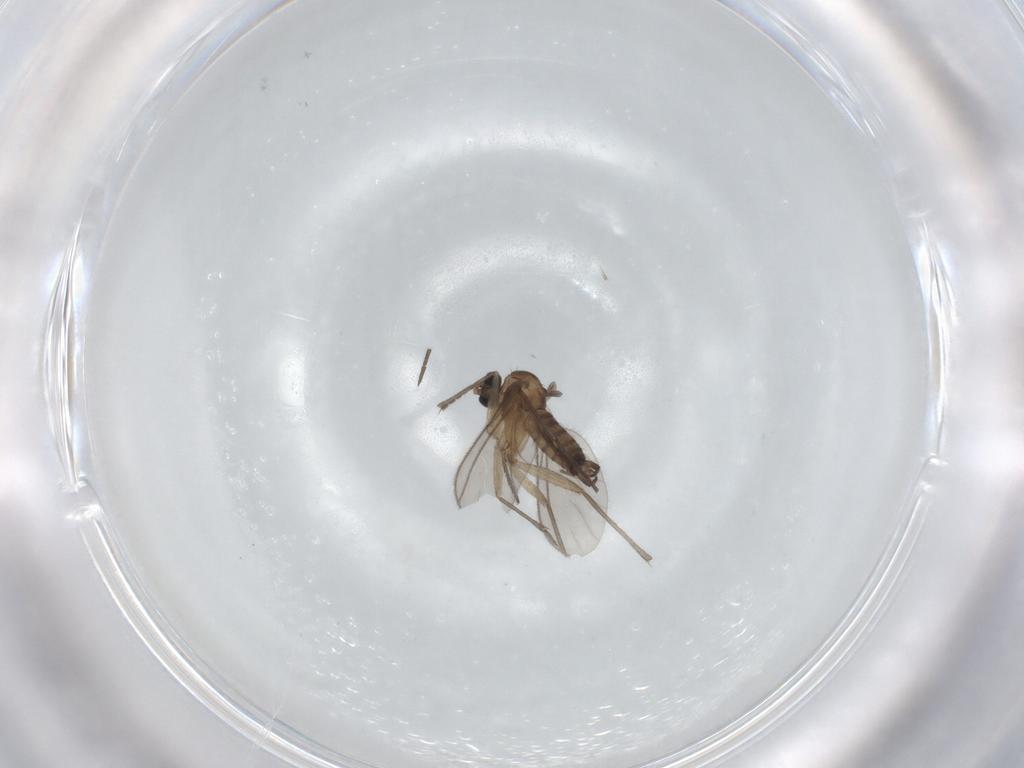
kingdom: Animalia
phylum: Arthropoda
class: Insecta
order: Diptera
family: Sciaridae
